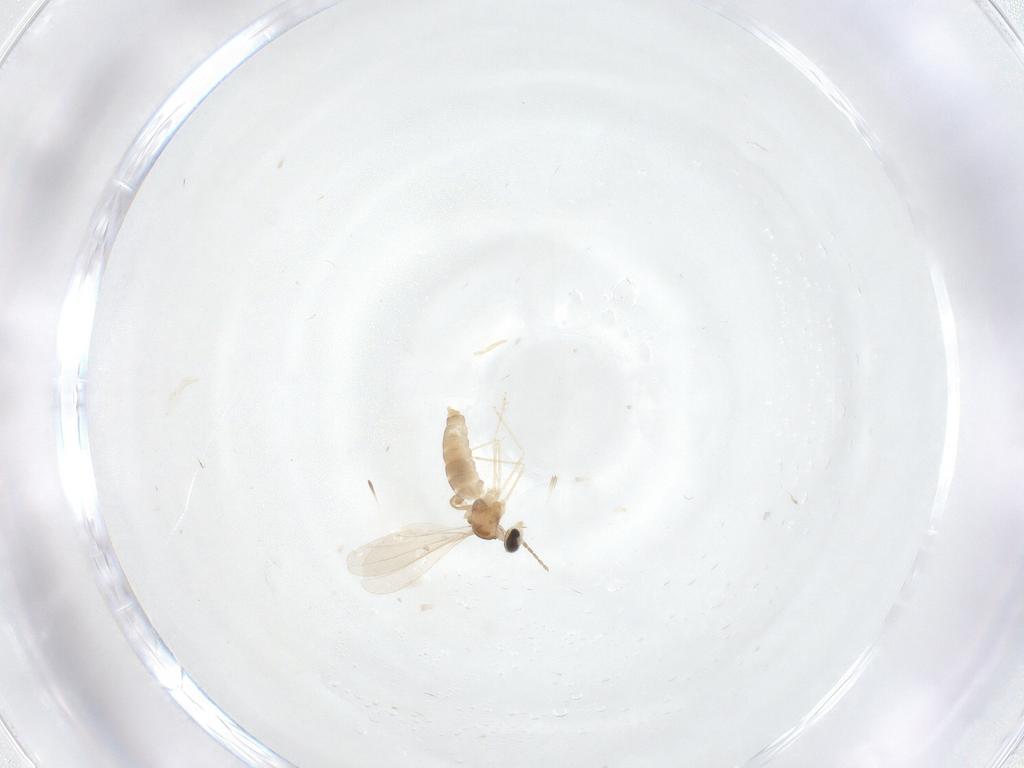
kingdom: Animalia
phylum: Arthropoda
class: Insecta
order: Diptera
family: Cecidomyiidae
